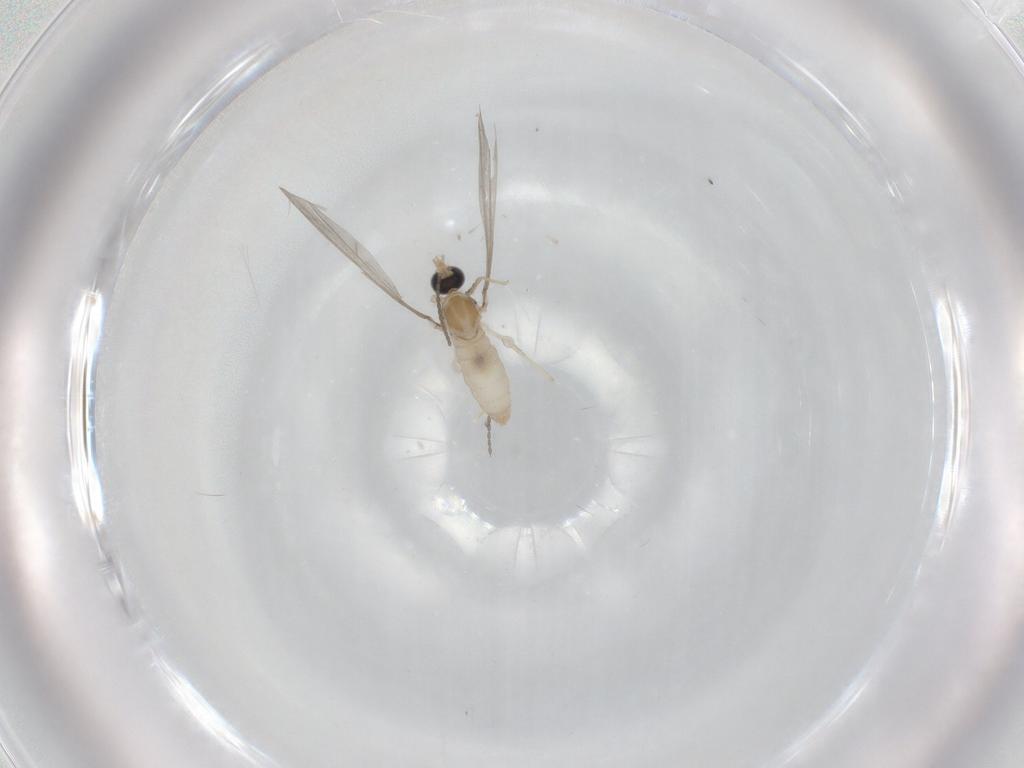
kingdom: Animalia
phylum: Arthropoda
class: Insecta
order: Diptera
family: Cecidomyiidae
